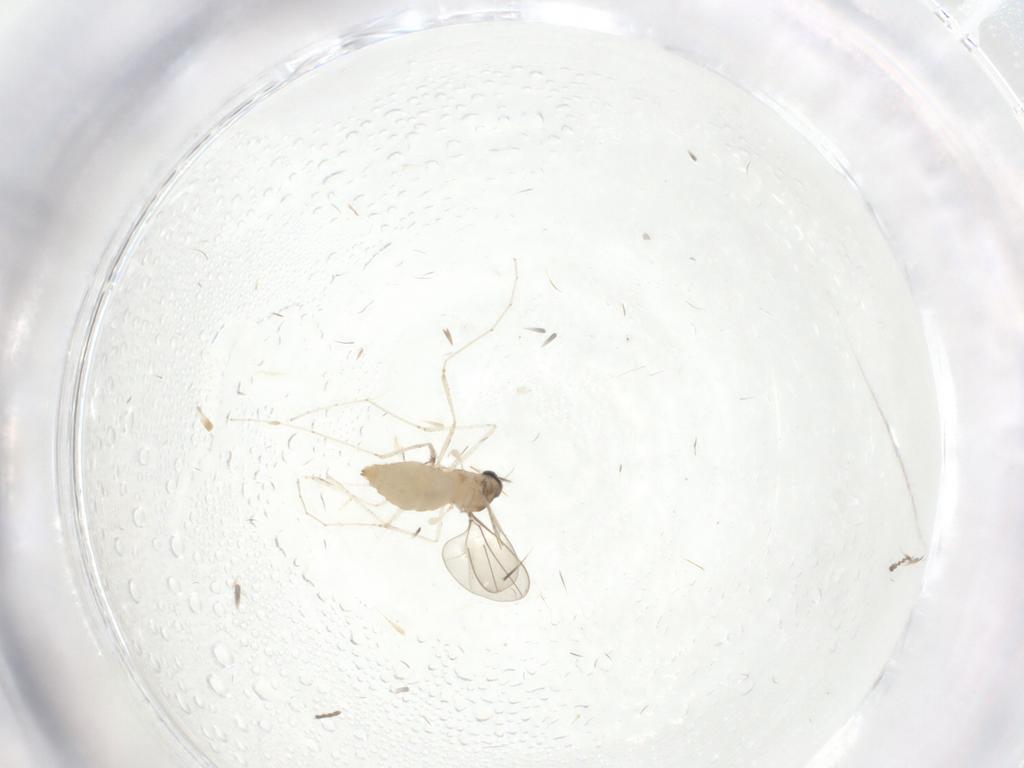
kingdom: Animalia
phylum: Arthropoda
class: Insecta
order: Diptera
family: Cecidomyiidae
